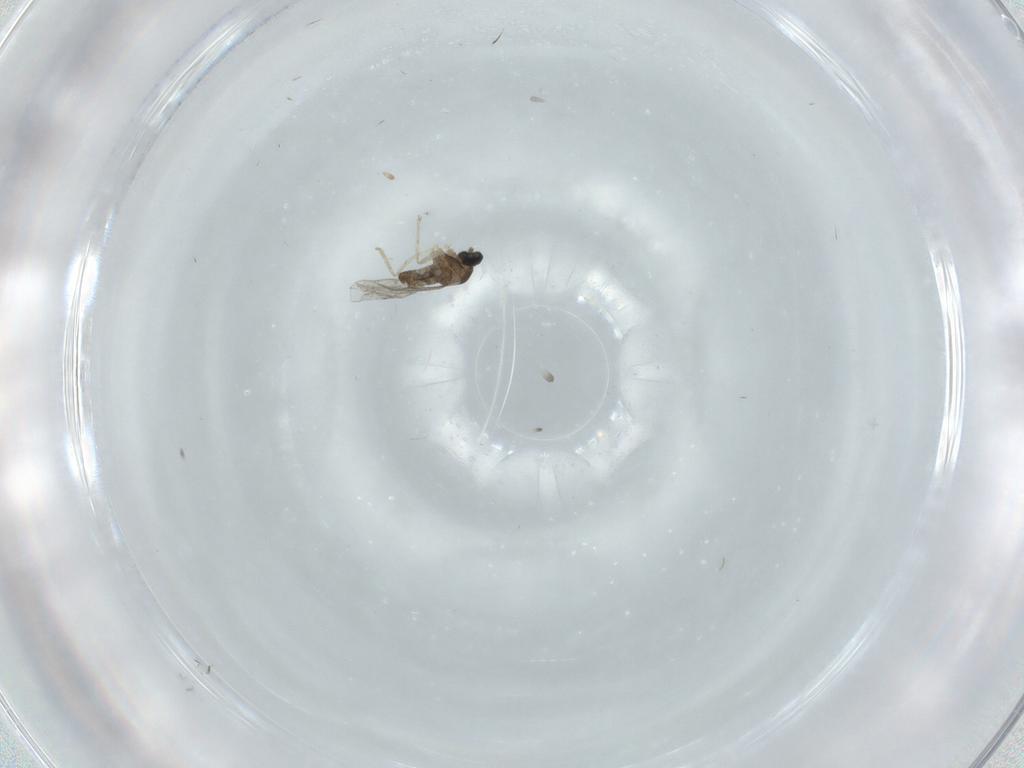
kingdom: Animalia
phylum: Arthropoda
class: Insecta
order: Diptera
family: Cecidomyiidae
